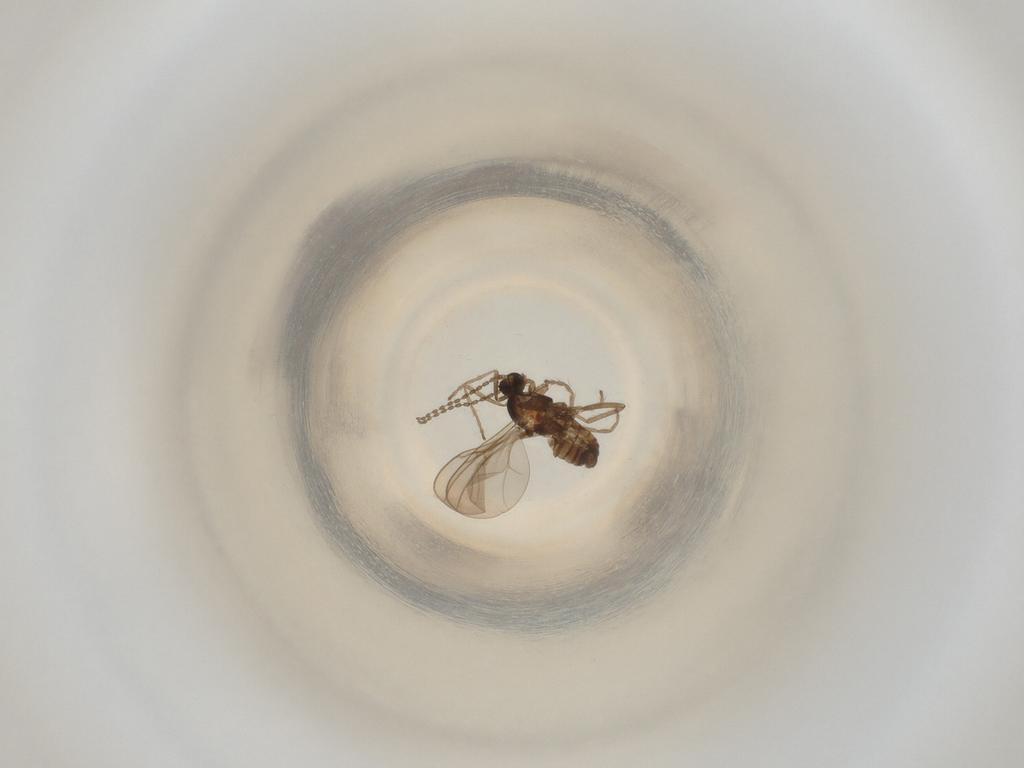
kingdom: Animalia
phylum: Arthropoda
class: Insecta
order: Diptera
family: Cecidomyiidae
